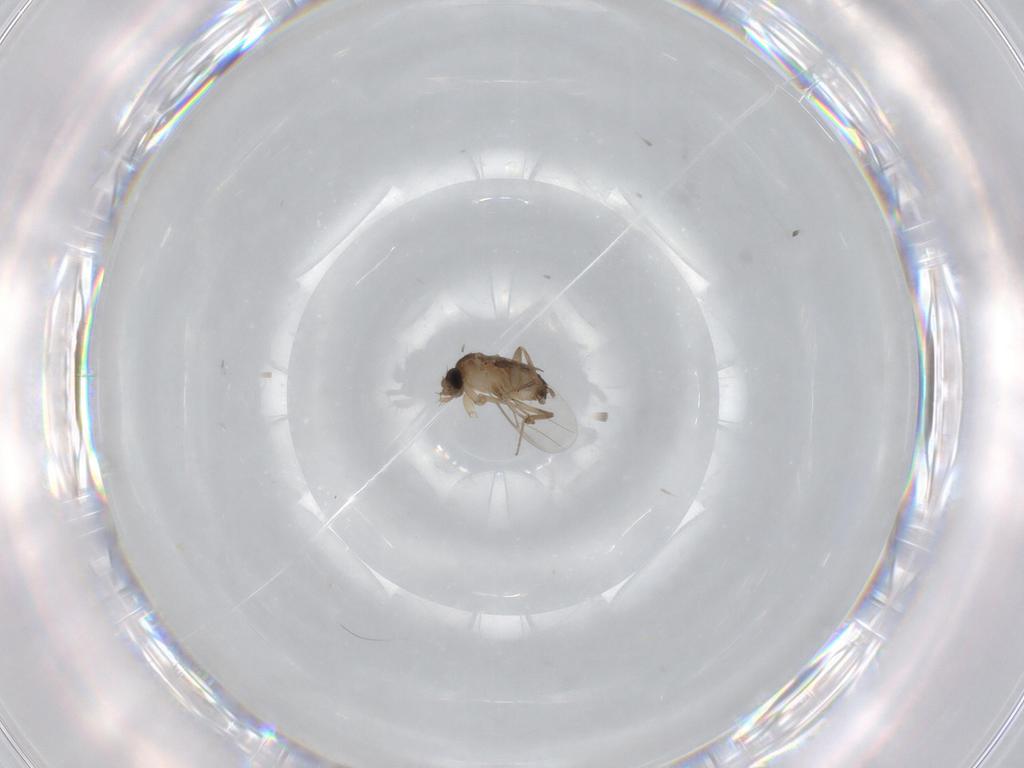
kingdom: Animalia
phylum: Arthropoda
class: Insecta
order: Diptera
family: Phoridae
